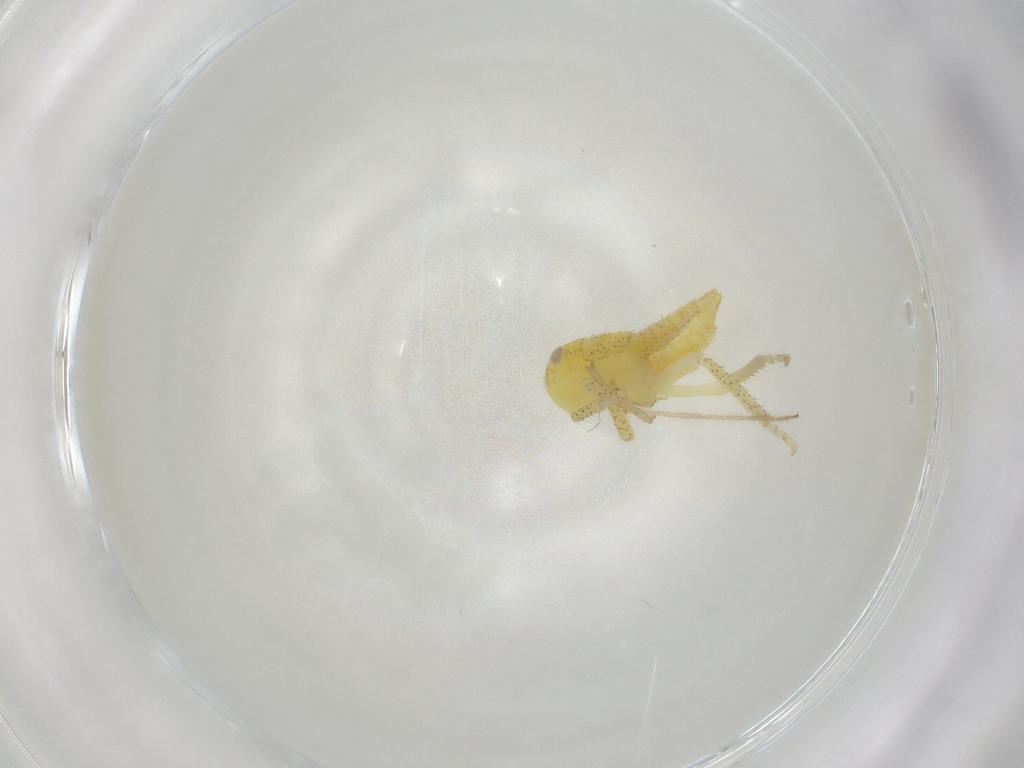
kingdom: Animalia
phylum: Arthropoda
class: Insecta
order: Hemiptera
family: Cicadellidae
